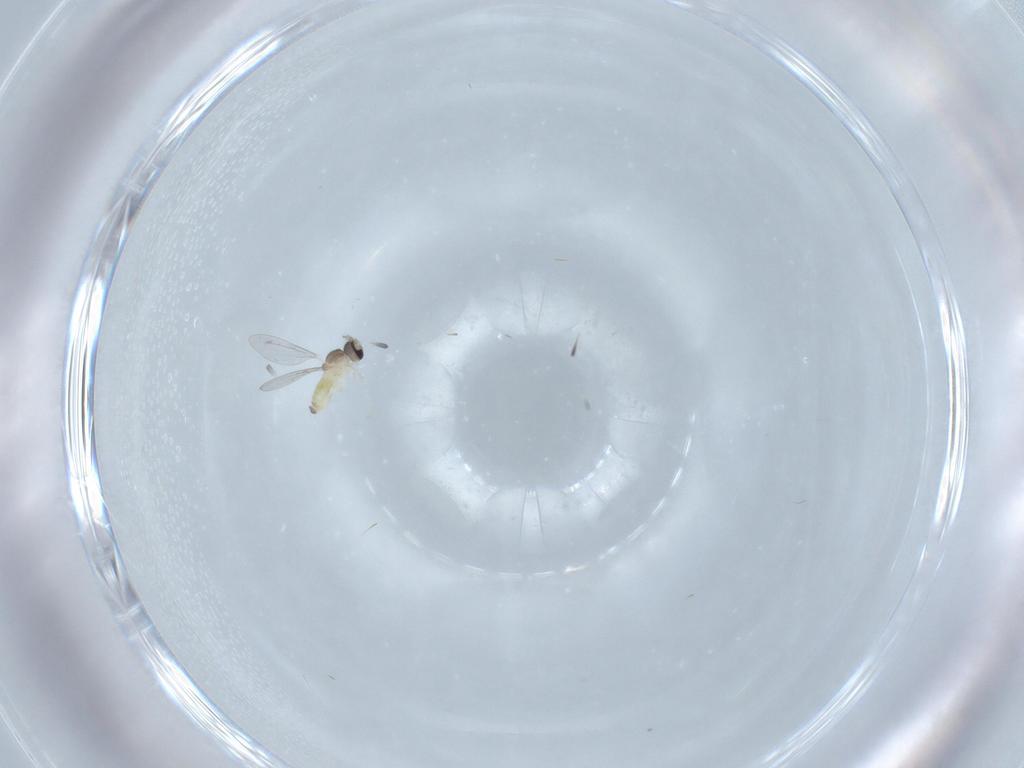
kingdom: Animalia
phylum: Arthropoda
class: Insecta
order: Diptera
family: Cecidomyiidae
